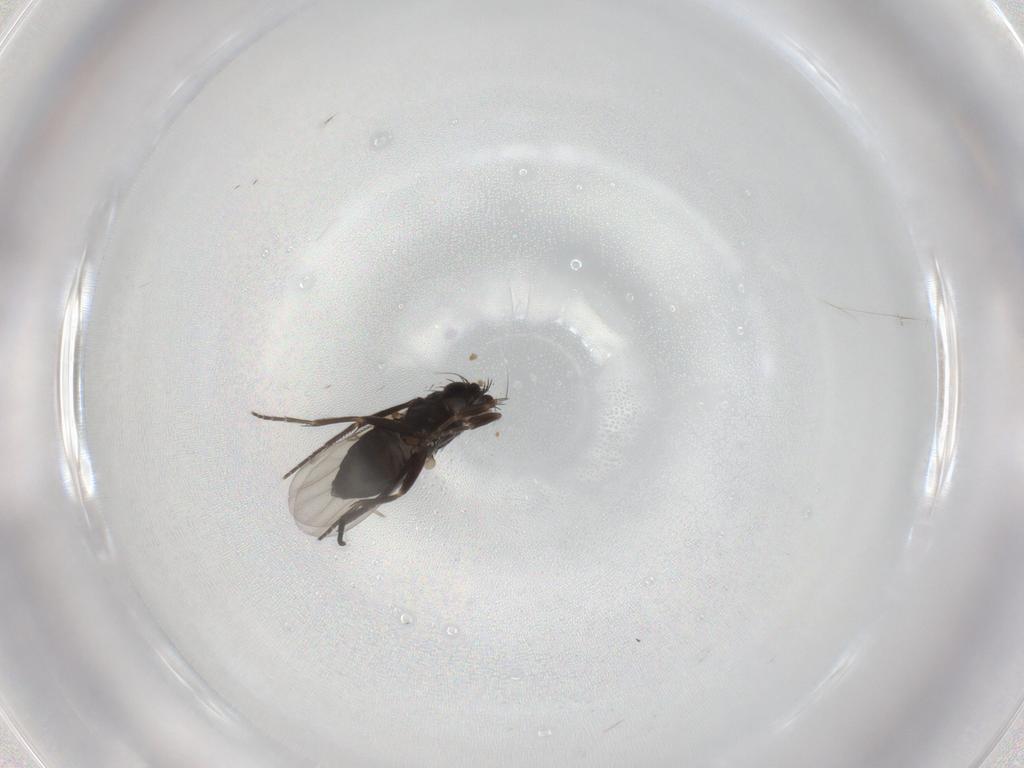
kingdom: Animalia
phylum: Arthropoda
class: Insecta
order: Diptera
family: Phoridae
